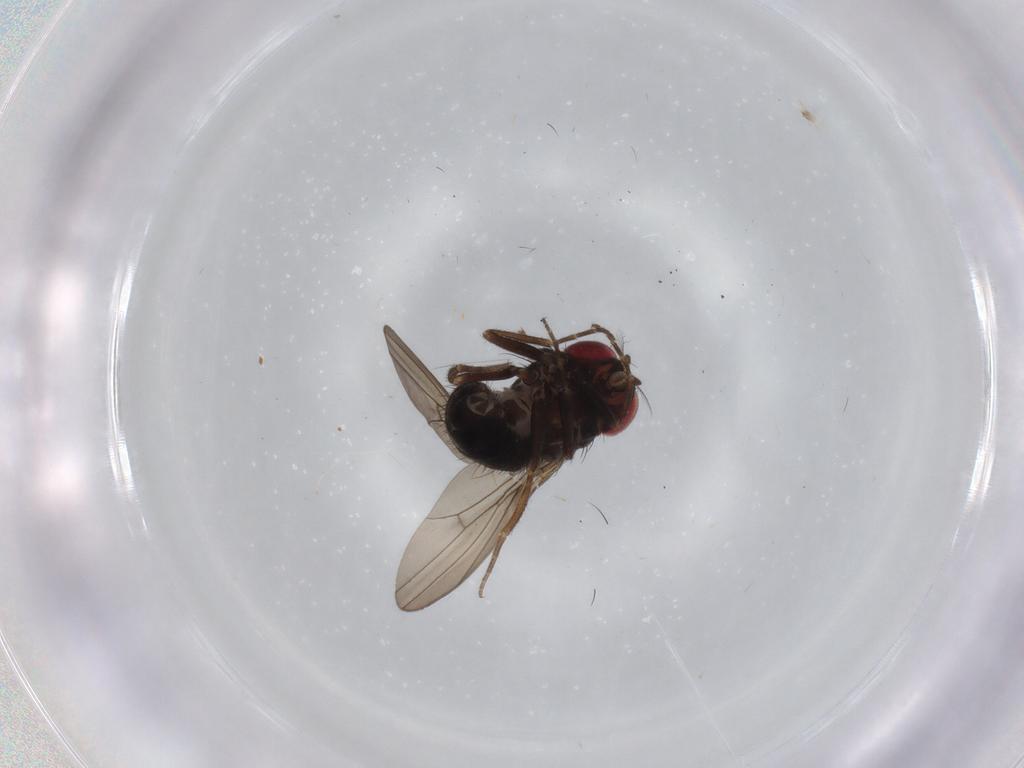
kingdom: Animalia
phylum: Arthropoda
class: Insecta
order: Diptera
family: Drosophilidae
